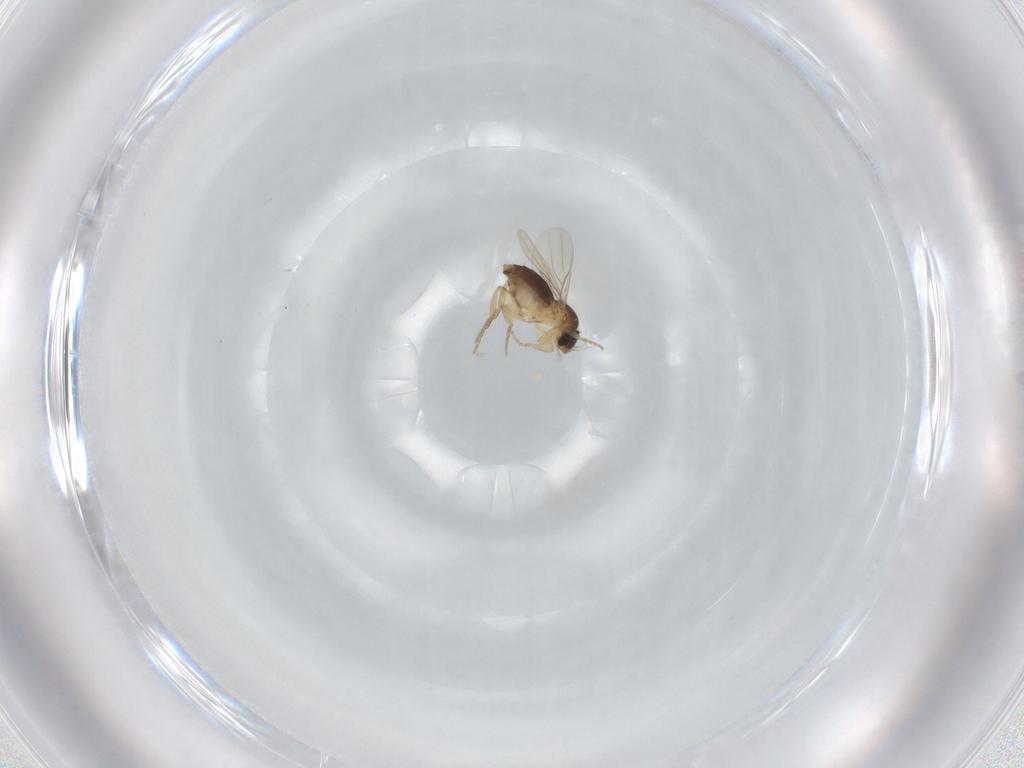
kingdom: Animalia
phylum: Arthropoda
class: Insecta
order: Diptera
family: Phoridae
